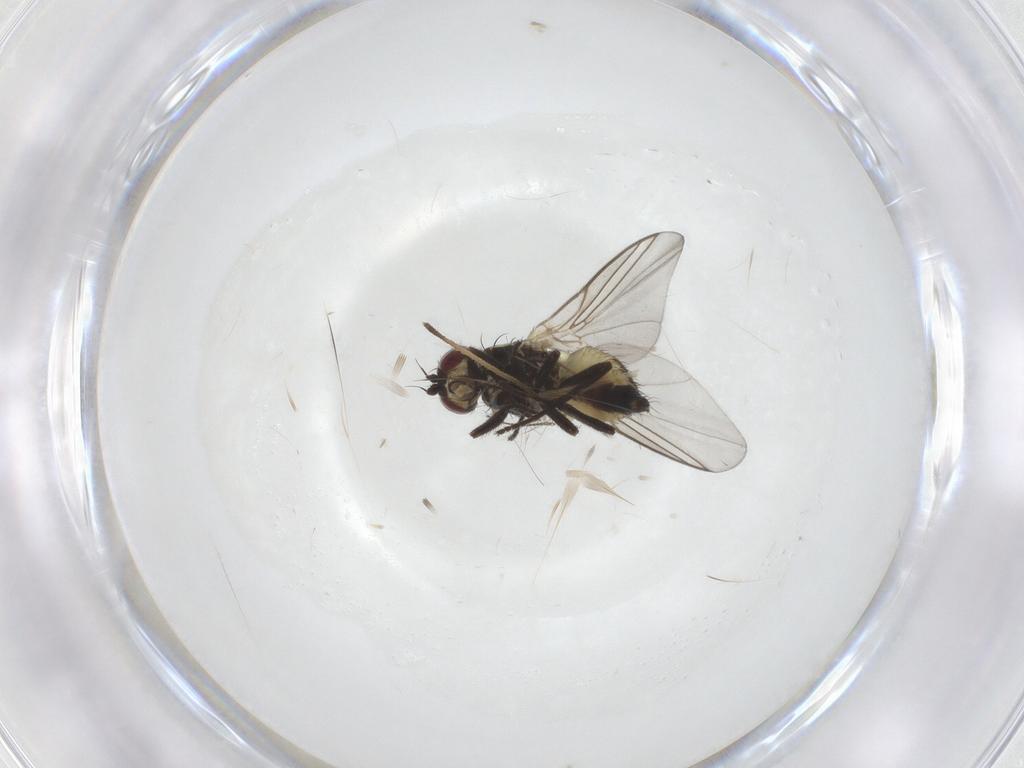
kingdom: Animalia
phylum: Arthropoda
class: Insecta
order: Diptera
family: Chironomidae
